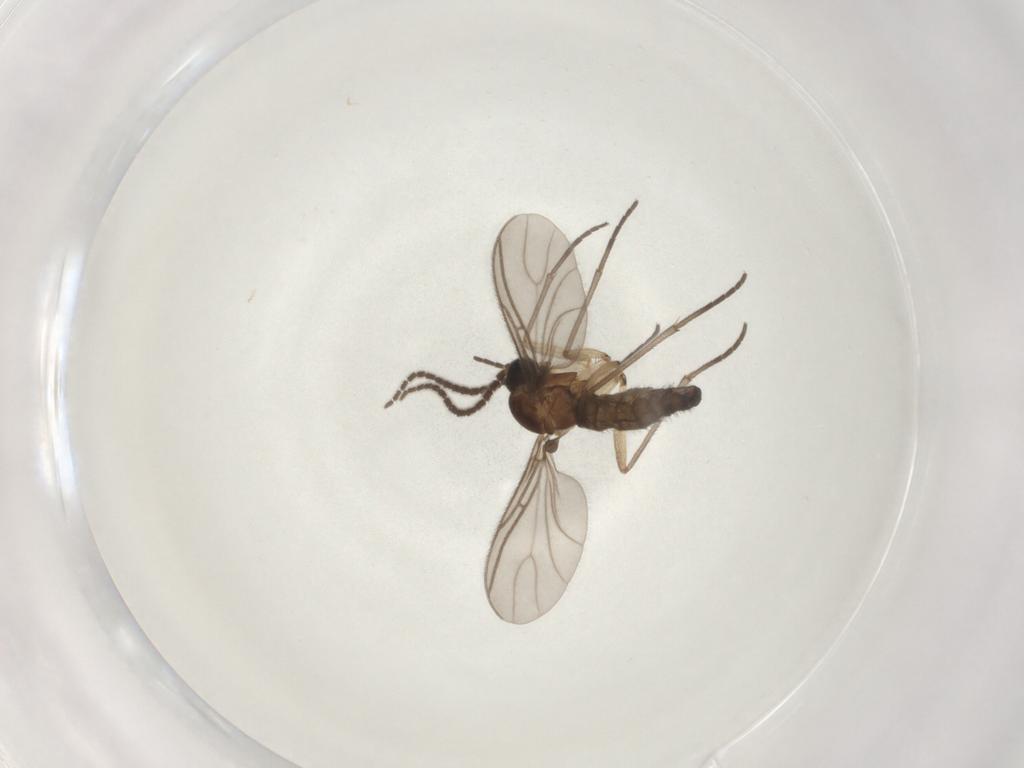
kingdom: Animalia
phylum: Arthropoda
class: Insecta
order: Diptera
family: Sciaridae
